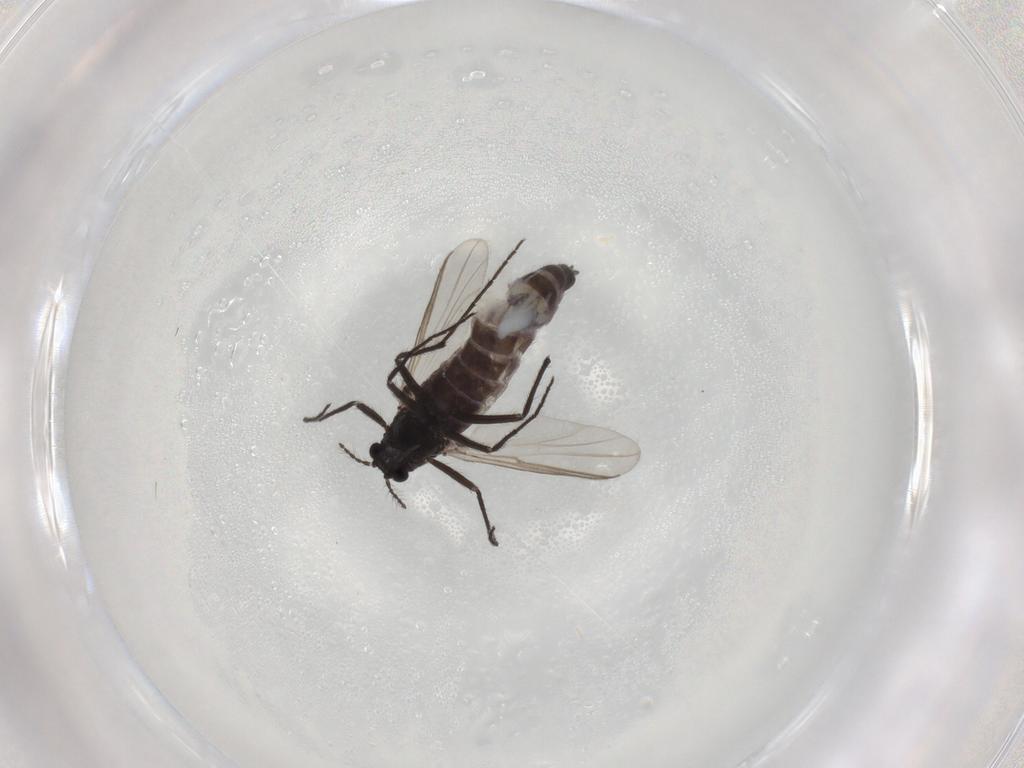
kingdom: Animalia
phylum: Arthropoda
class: Insecta
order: Diptera
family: Chironomidae
